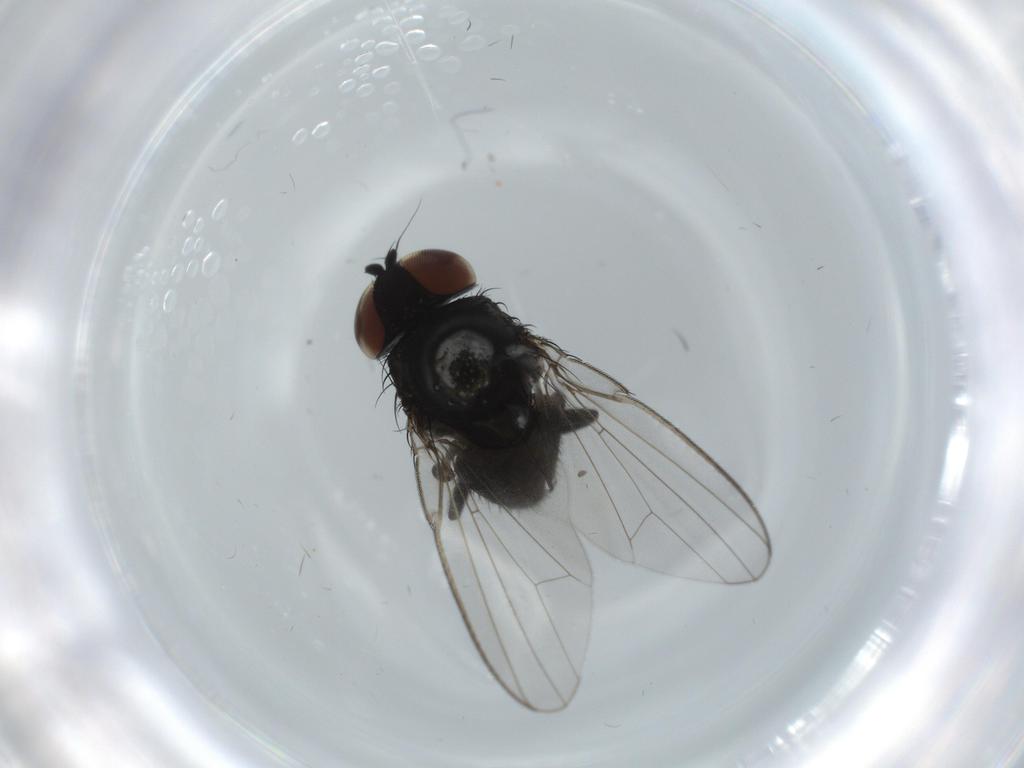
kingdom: Animalia
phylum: Arthropoda
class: Insecta
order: Diptera
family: Milichiidae
